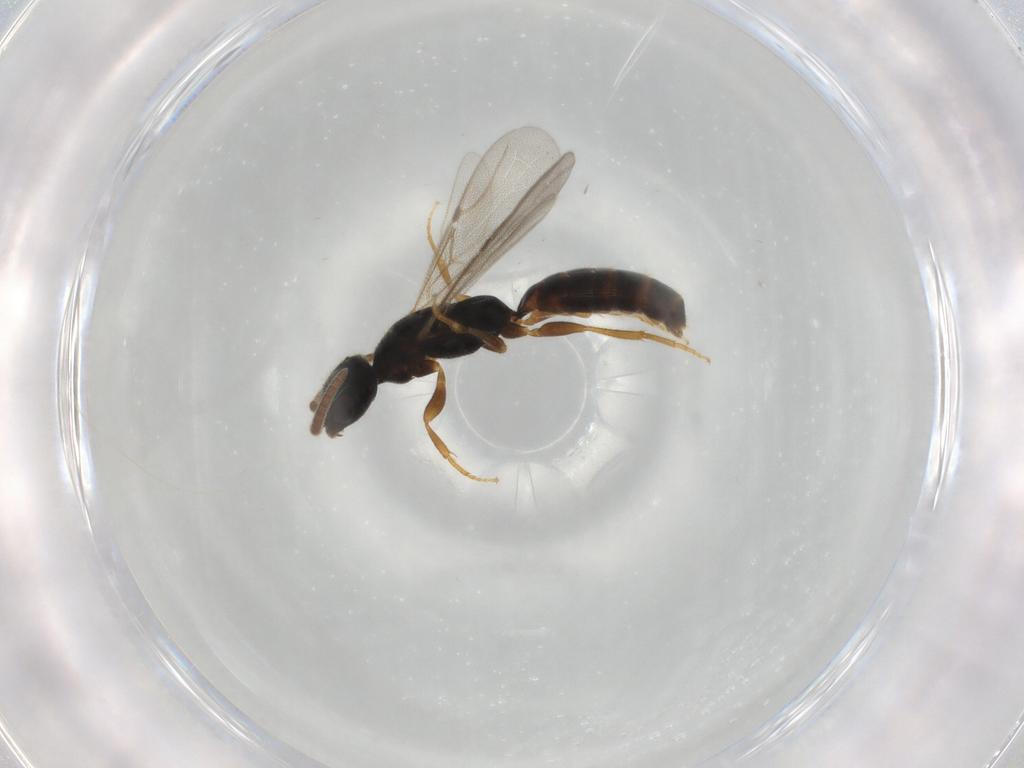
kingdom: Animalia
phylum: Arthropoda
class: Insecta
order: Hymenoptera
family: Bethylidae
